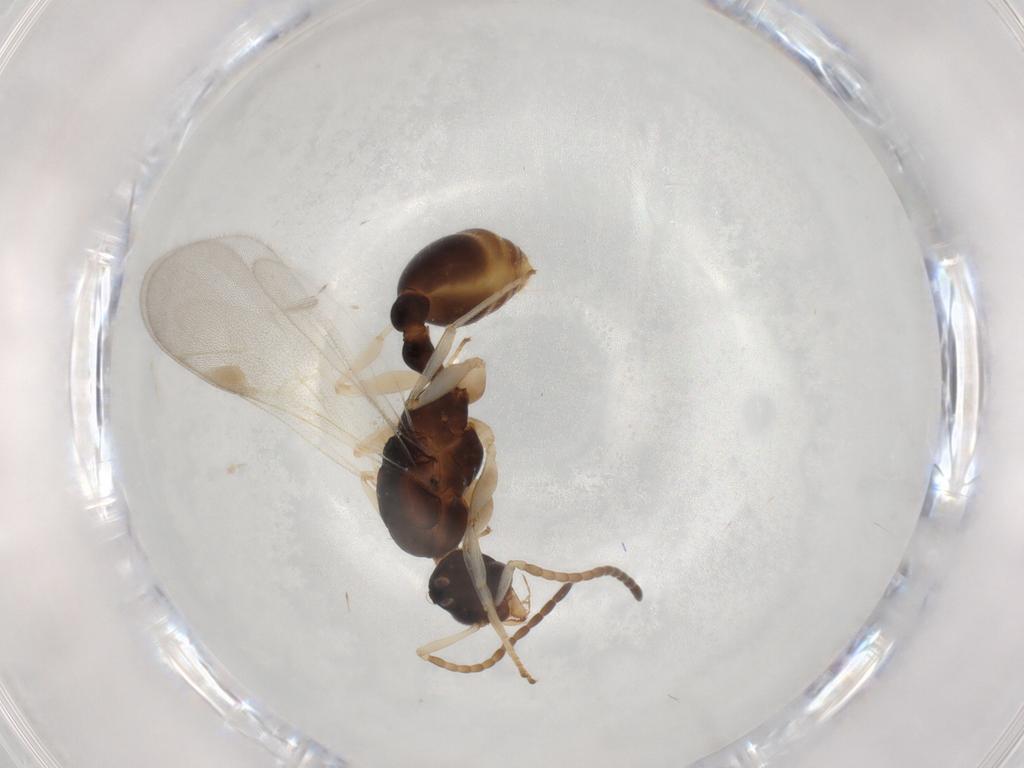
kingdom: Animalia
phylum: Arthropoda
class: Insecta
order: Hymenoptera
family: Formicidae
